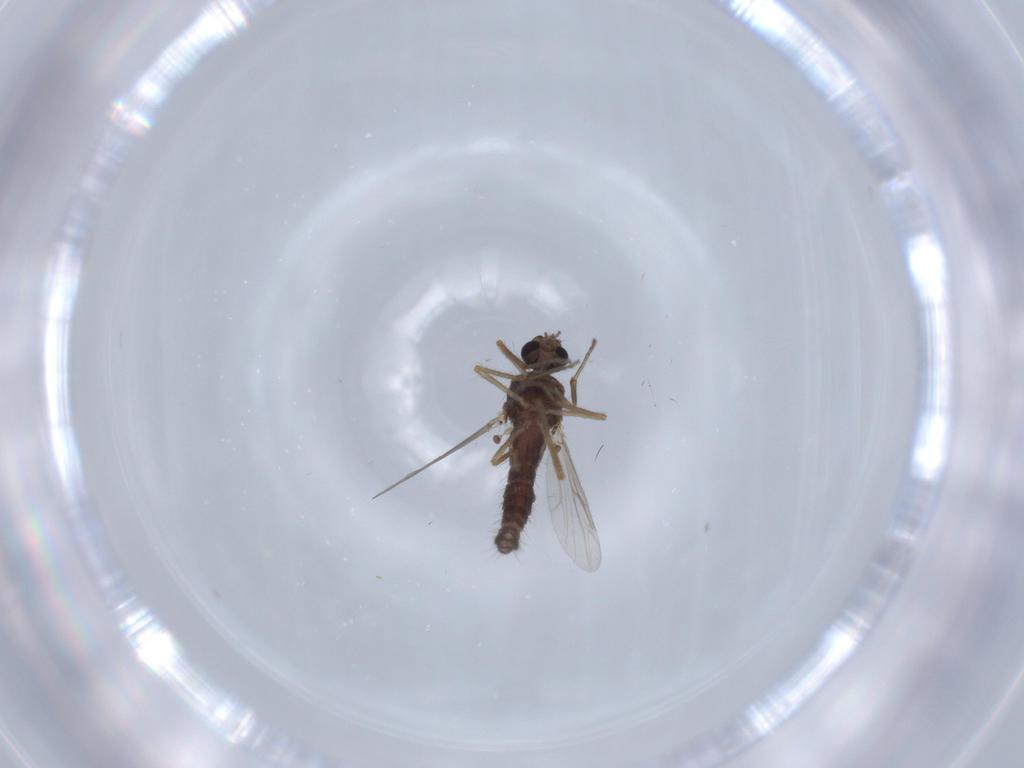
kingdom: Animalia
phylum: Arthropoda
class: Insecta
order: Diptera
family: Ceratopogonidae
